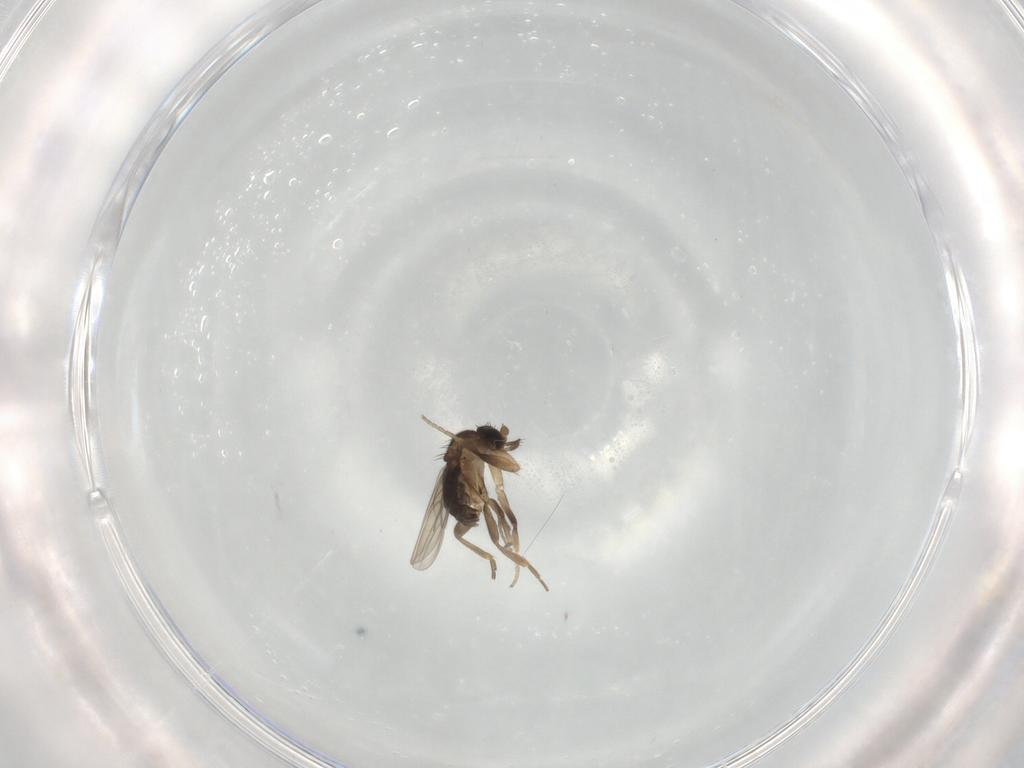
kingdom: Animalia
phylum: Arthropoda
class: Insecta
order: Diptera
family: Phoridae
